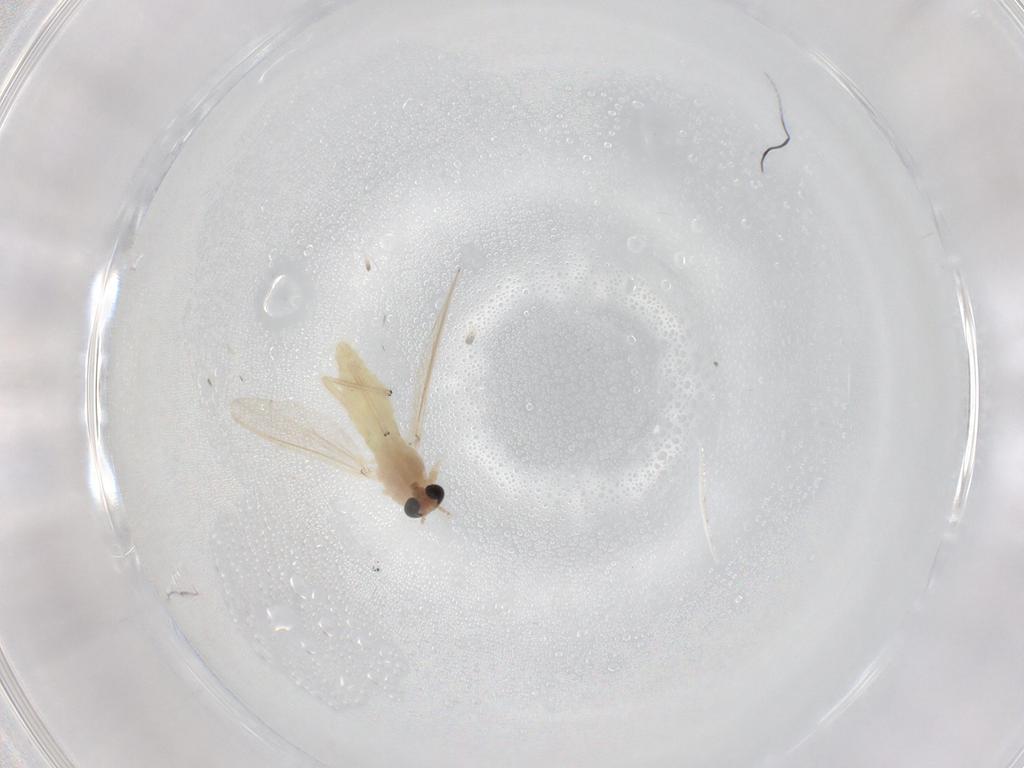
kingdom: Animalia
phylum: Arthropoda
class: Insecta
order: Diptera
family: Chironomidae
